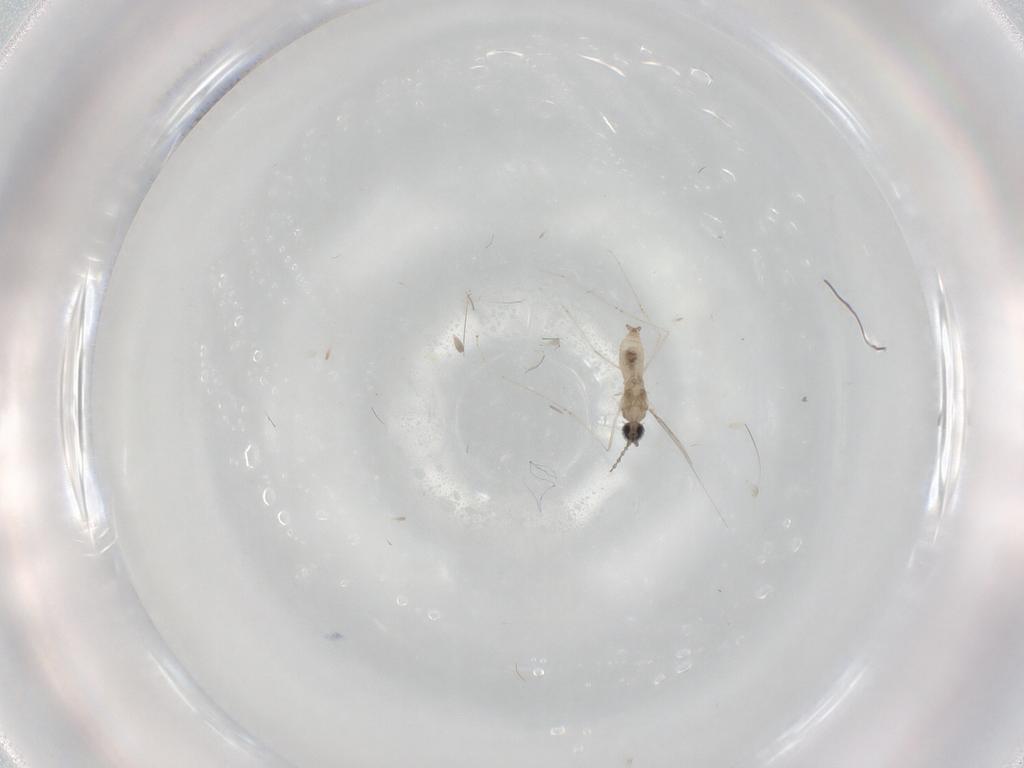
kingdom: Animalia
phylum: Arthropoda
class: Insecta
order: Diptera
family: Cecidomyiidae
